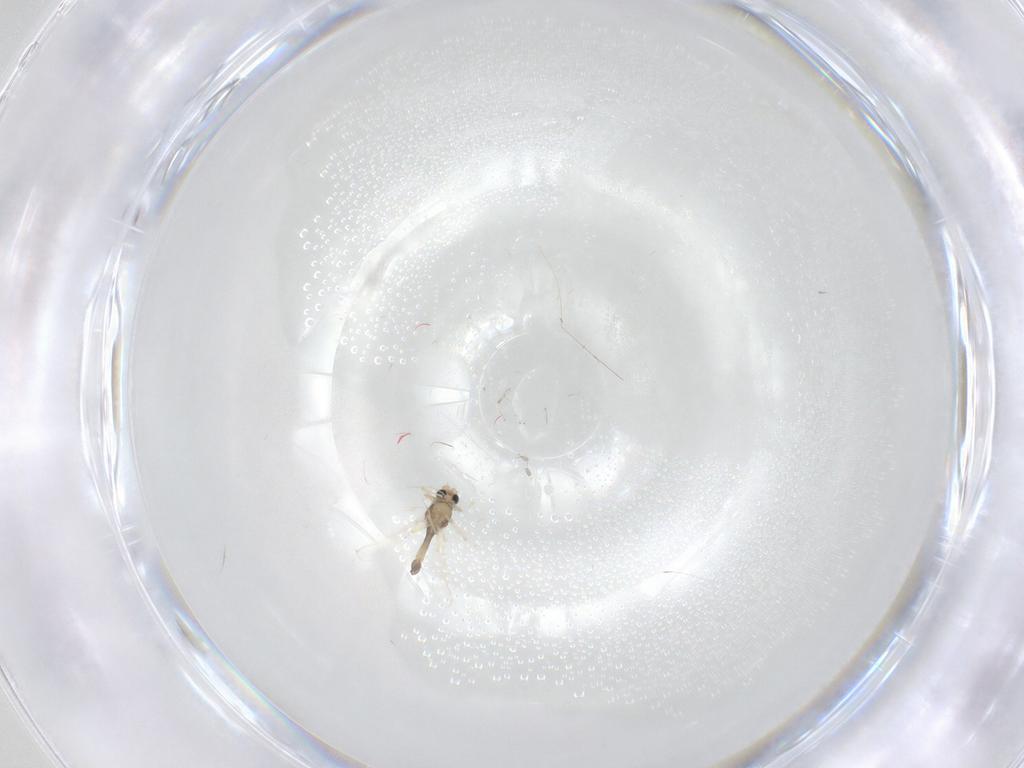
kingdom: Animalia
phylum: Arthropoda
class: Insecta
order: Diptera
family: Chironomidae
